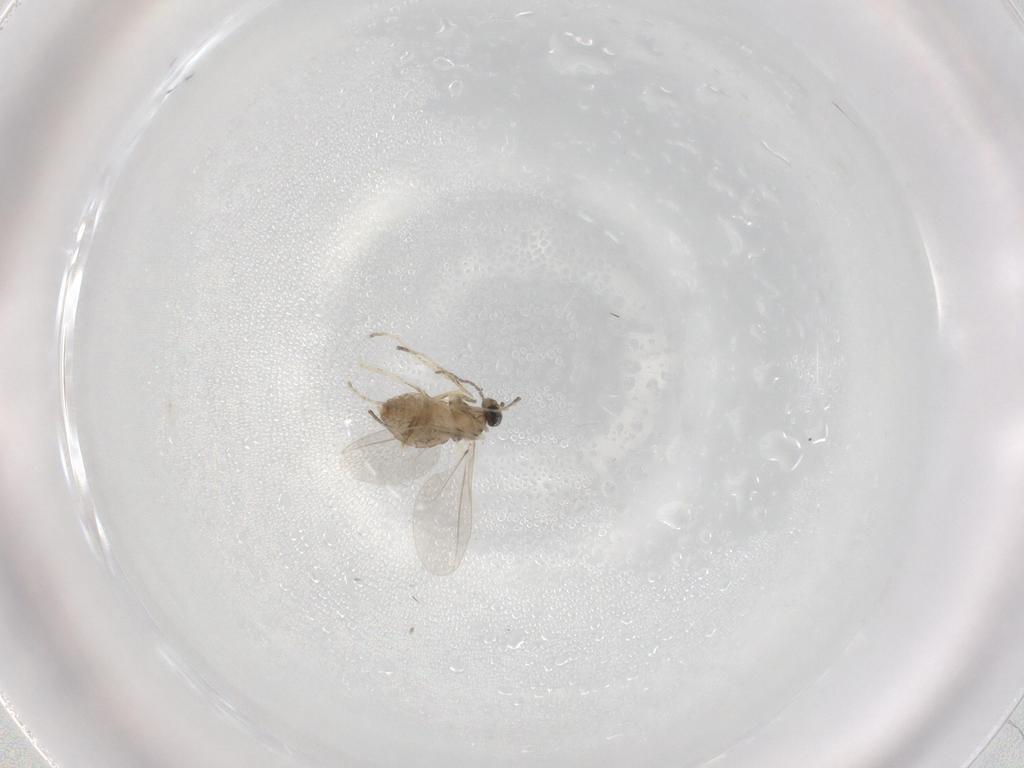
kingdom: Animalia
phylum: Arthropoda
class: Insecta
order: Diptera
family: Cecidomyiidae
